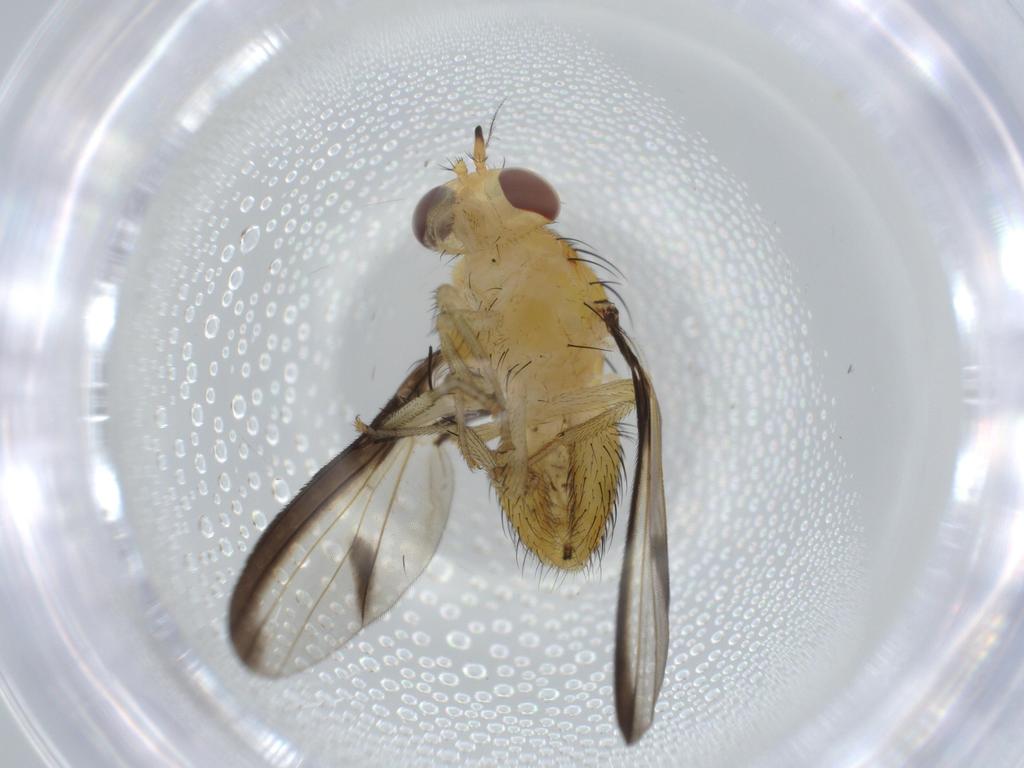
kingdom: Animalia
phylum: Arthropoda
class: Insecta
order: Diptera
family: Lauxaniidae
